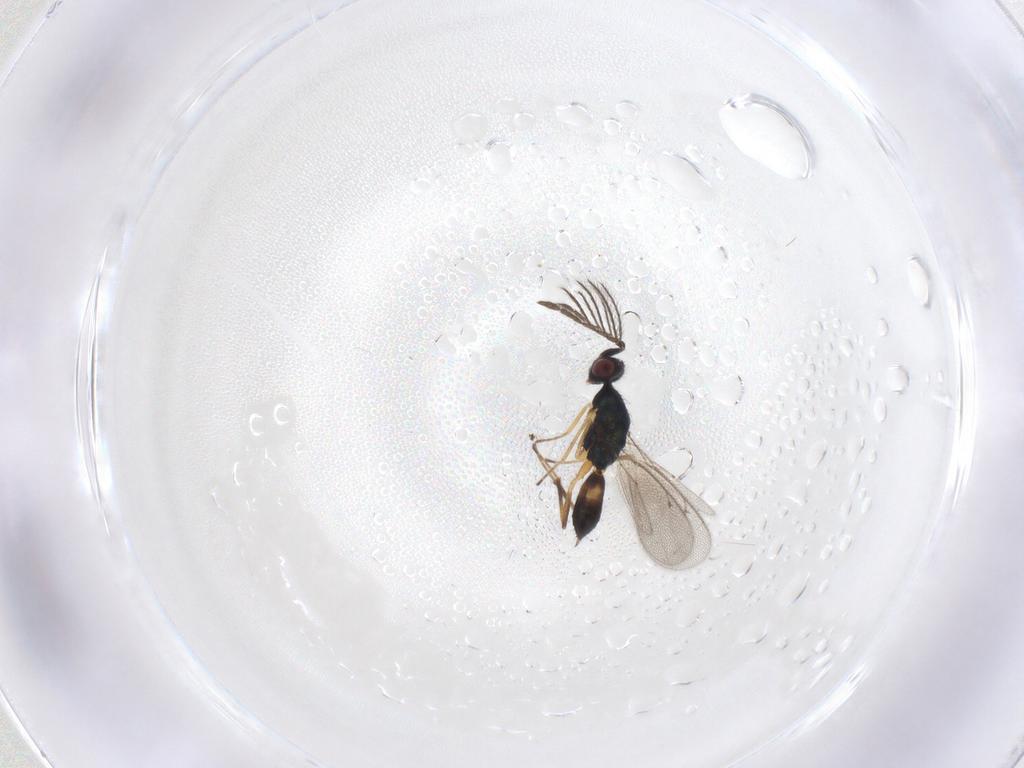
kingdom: Animalia
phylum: Arthropoda
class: Insecta
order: Hymenoptera
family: Eulophidae
